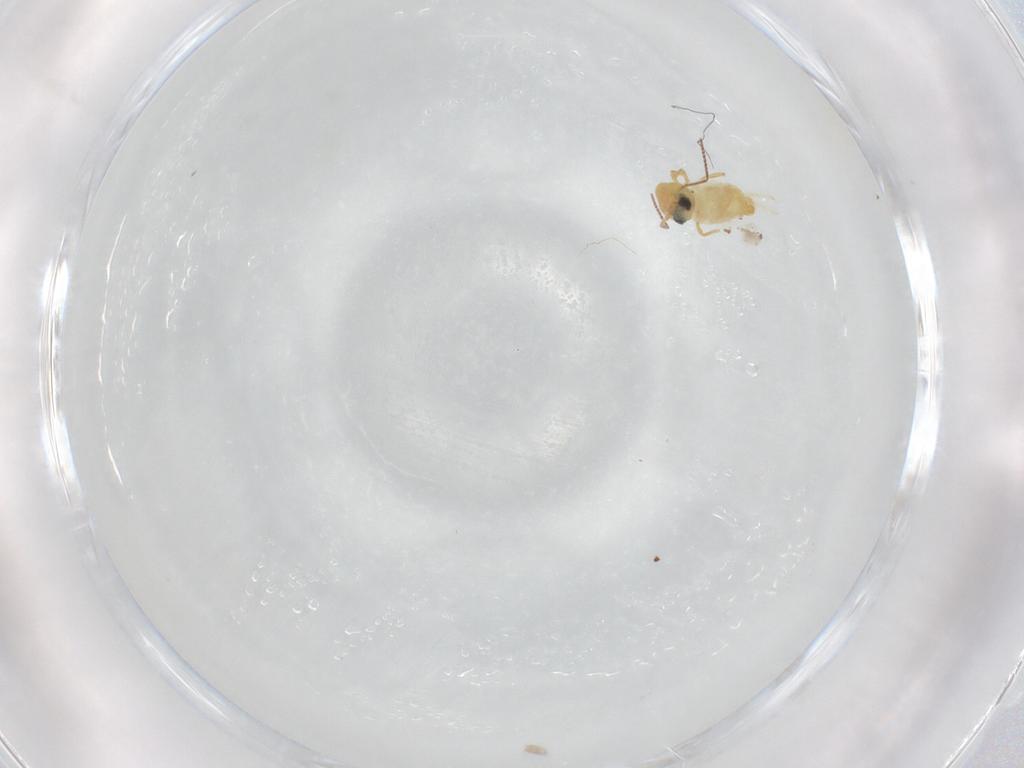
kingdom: Animalia
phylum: Arthropoda
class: Collembola
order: Symphypleona
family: Bourletiellidae
